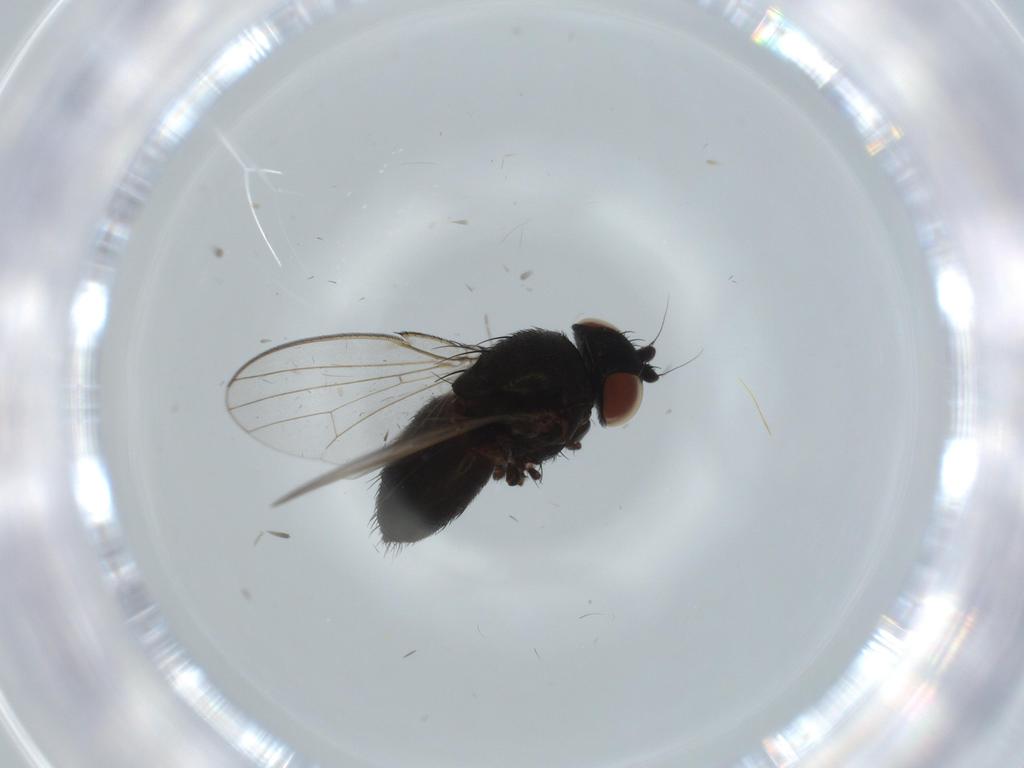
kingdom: Animalia
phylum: Arthropoda
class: Insecta
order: Diptera
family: Milichiidae
